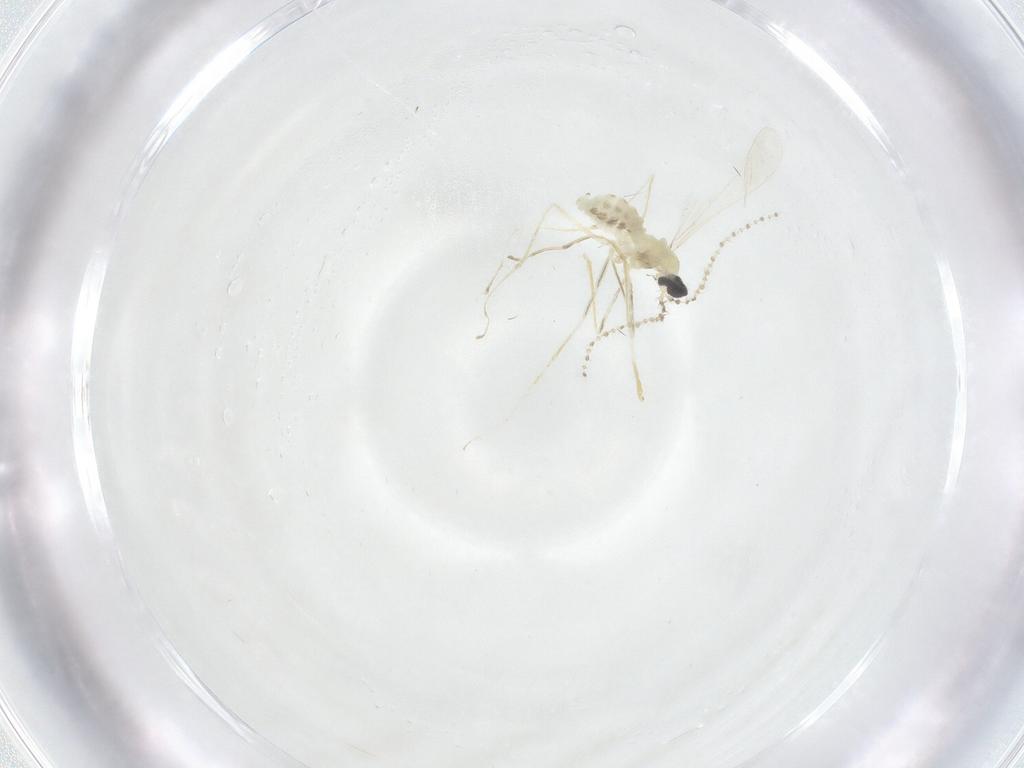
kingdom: Animalia
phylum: Arthropoda
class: Insecta
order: Diptera
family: Cecidomyiidae
